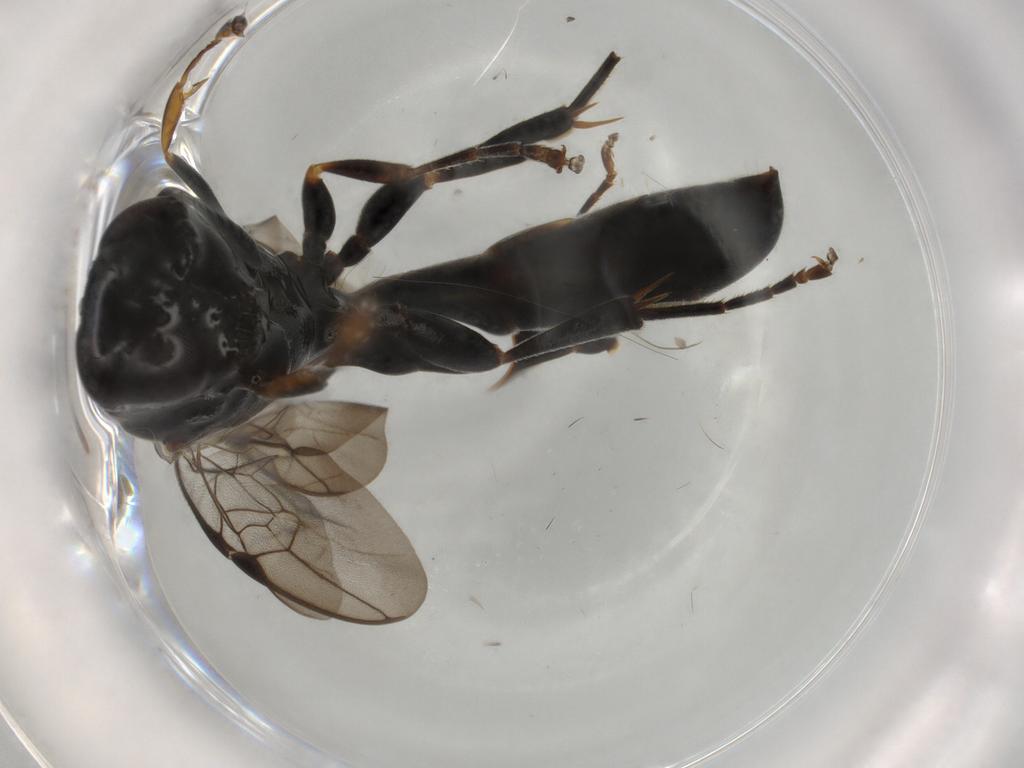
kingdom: Animalia
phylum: Arthropoda
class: Insecta
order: Hymenoptera
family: Crabronidae
